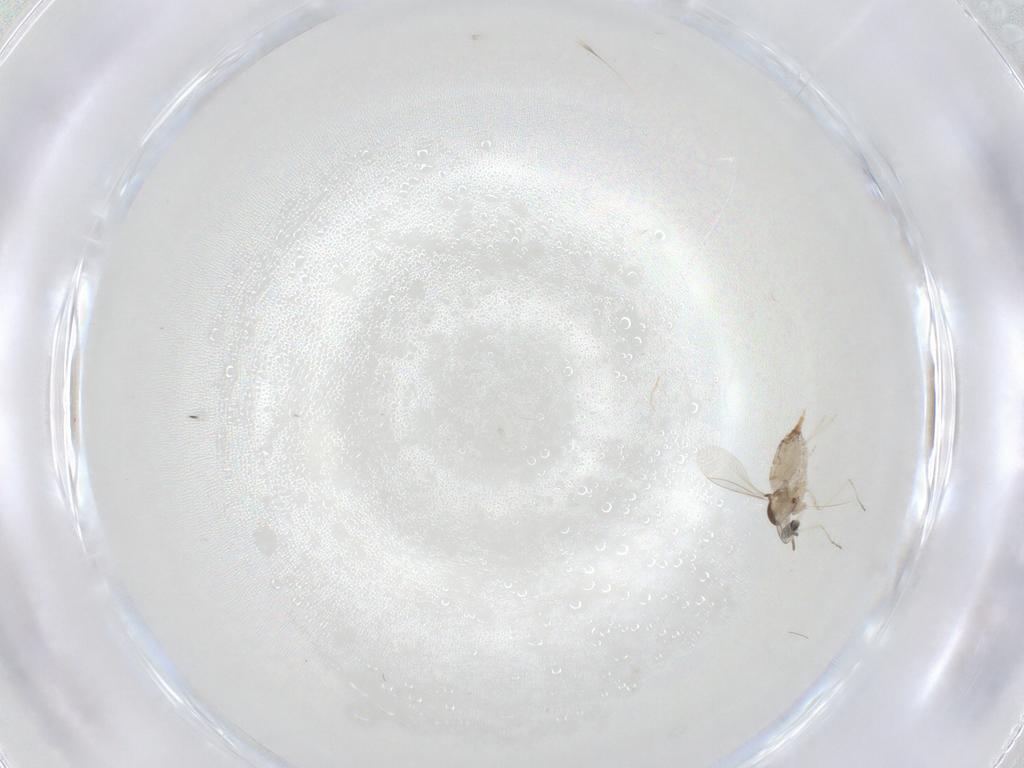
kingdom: Animalia
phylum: Arthropoda
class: Insecta
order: Diptera
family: Cecidomyiidae
